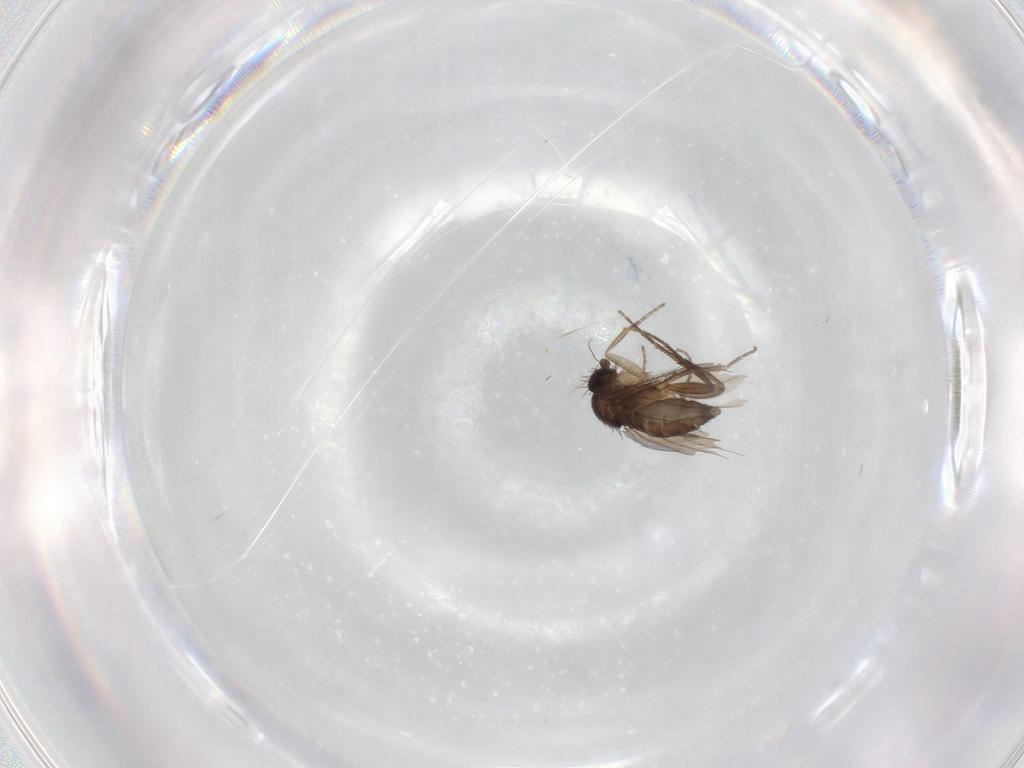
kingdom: Animalia
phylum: Arthropoda
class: Insecta
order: Diptera
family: Phoridae
